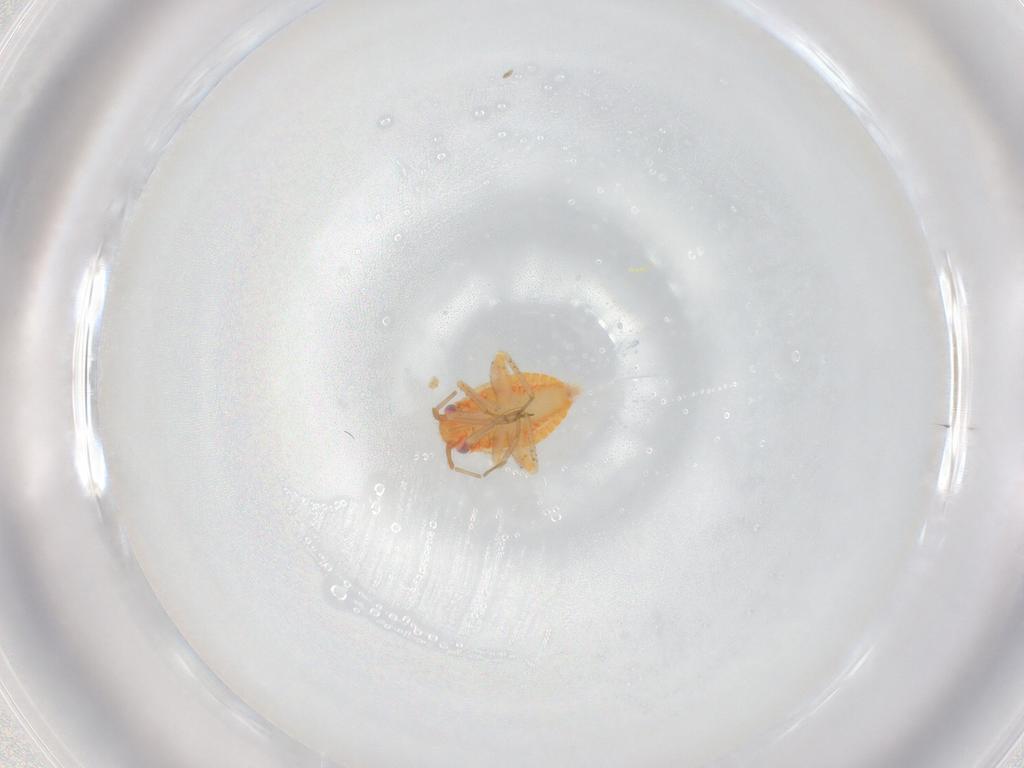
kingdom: Animalia
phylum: Arthropoda
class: Insecta
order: Hemiptera
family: Miridae
